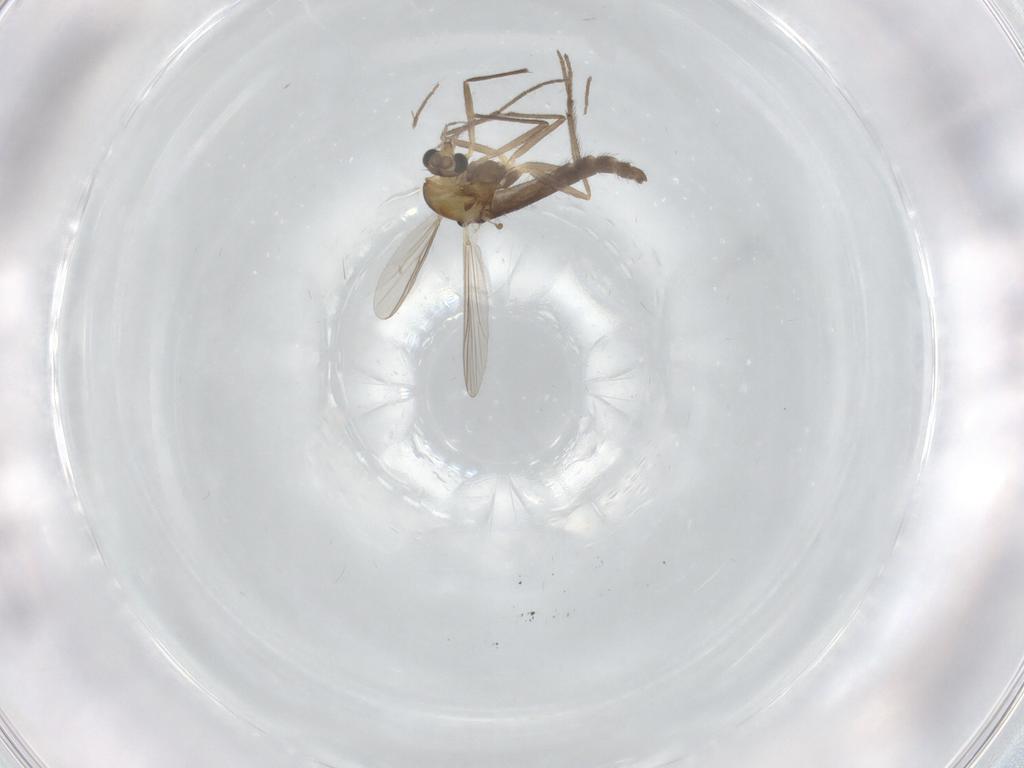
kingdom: Animalia
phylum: Arthropoda
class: Insecta
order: Diptera
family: Chironomidae
